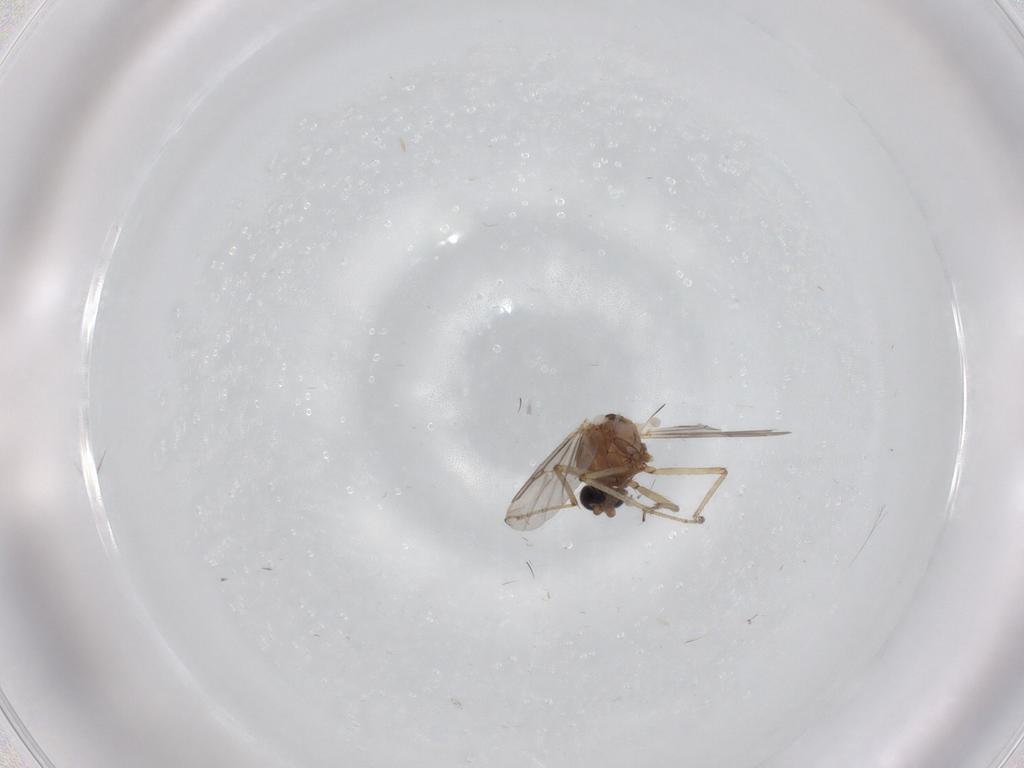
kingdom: Animalia
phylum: Arthropoda
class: Insecta
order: Diptera
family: Ceratopogonidae
